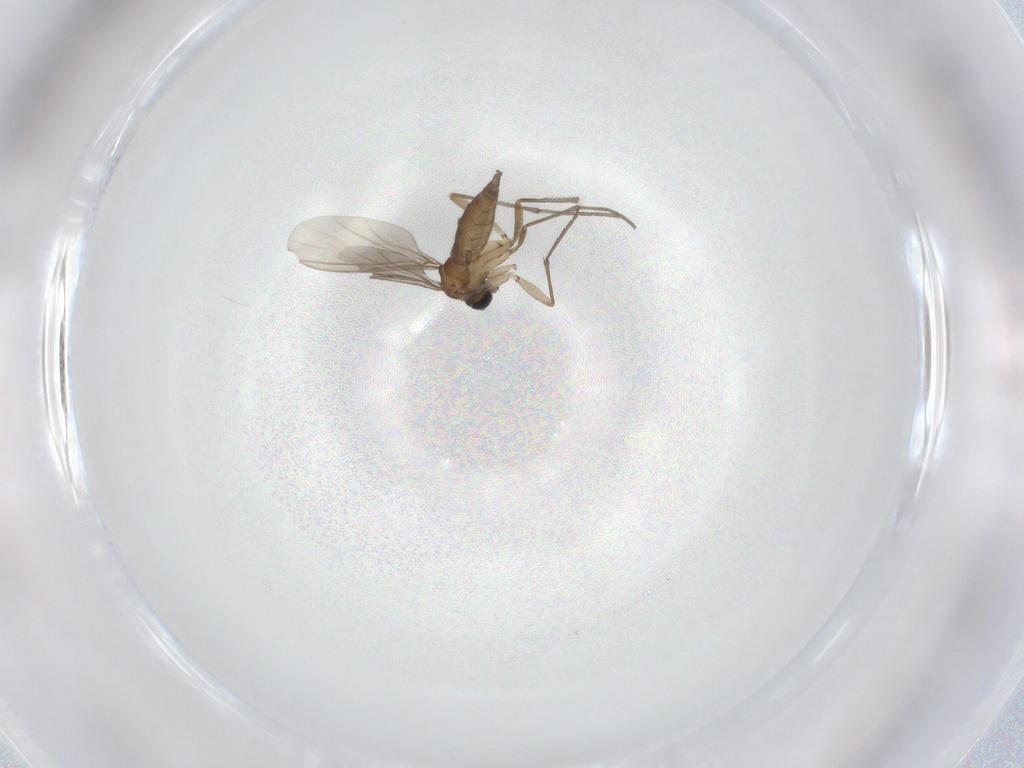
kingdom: Animalia
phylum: Arthropoda
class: Insecta
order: Diptera
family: Sciaridae
